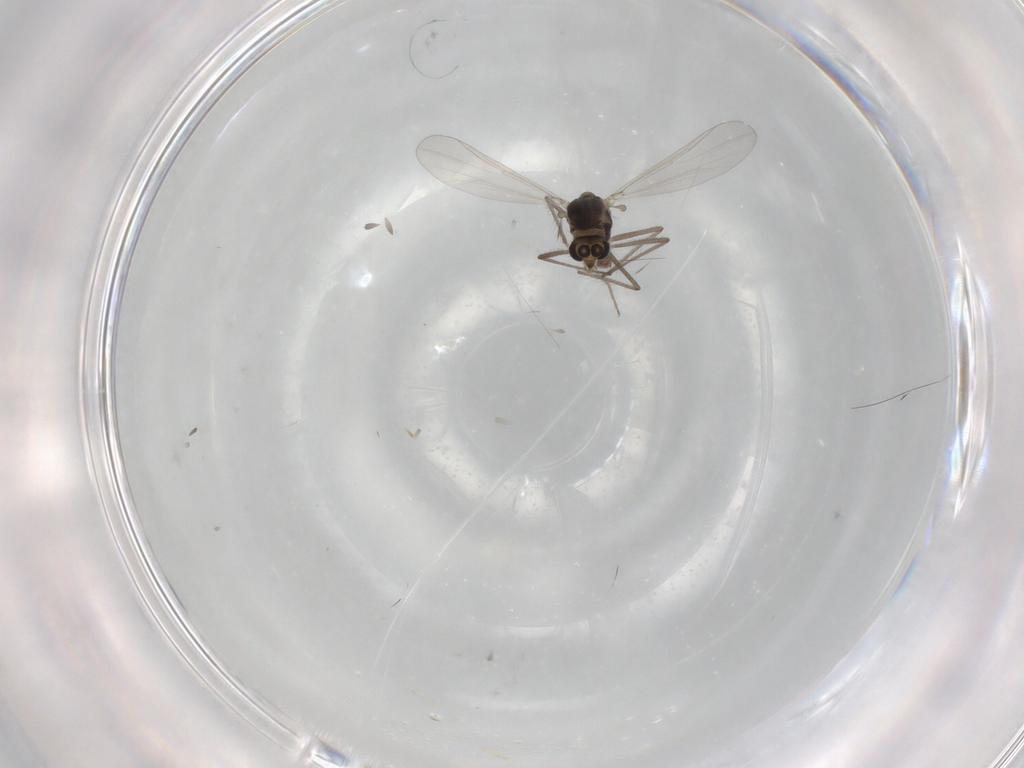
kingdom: Animalia
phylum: Arthropoda
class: Insecta
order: Diptera
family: Chironomidae
